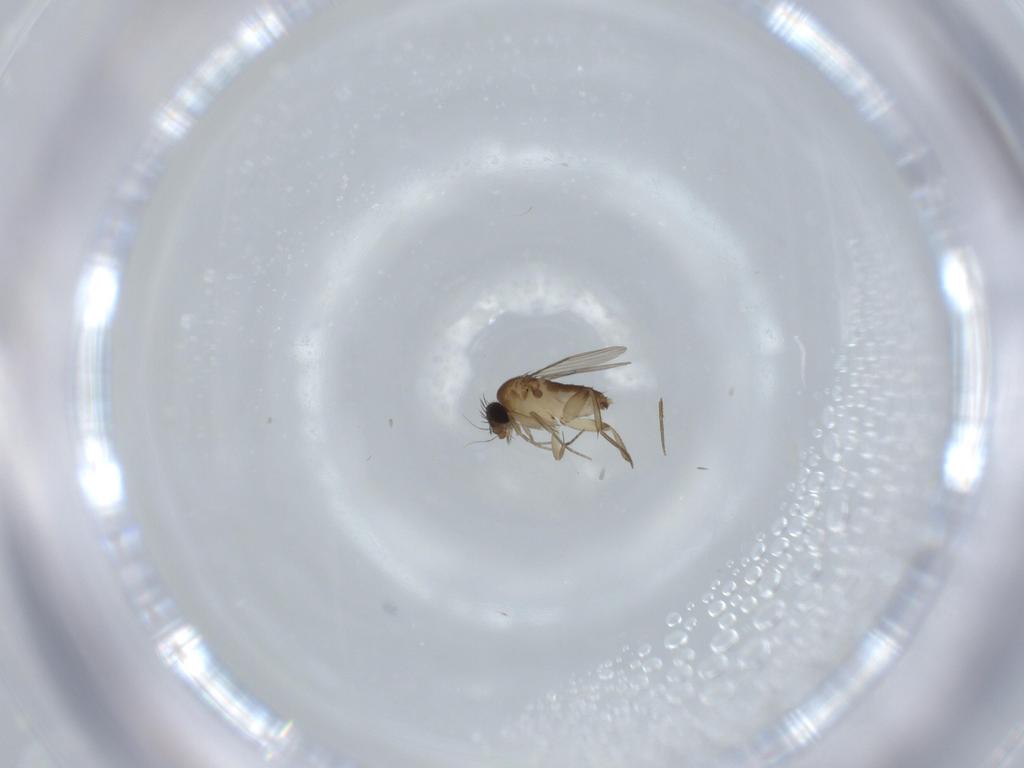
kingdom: Animalia
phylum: Arthropoda
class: Insecta
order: Diptera
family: Phoridae
